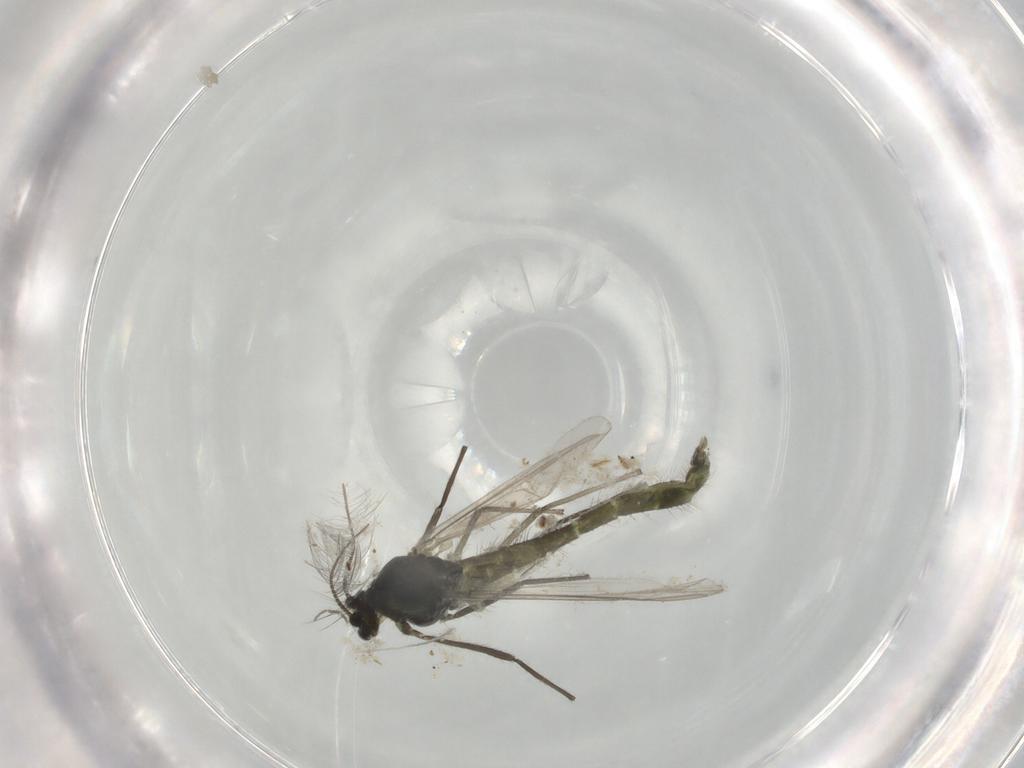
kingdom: Animalia
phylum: Arthropoda
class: Insecta
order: Diptera
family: Chironomidae
